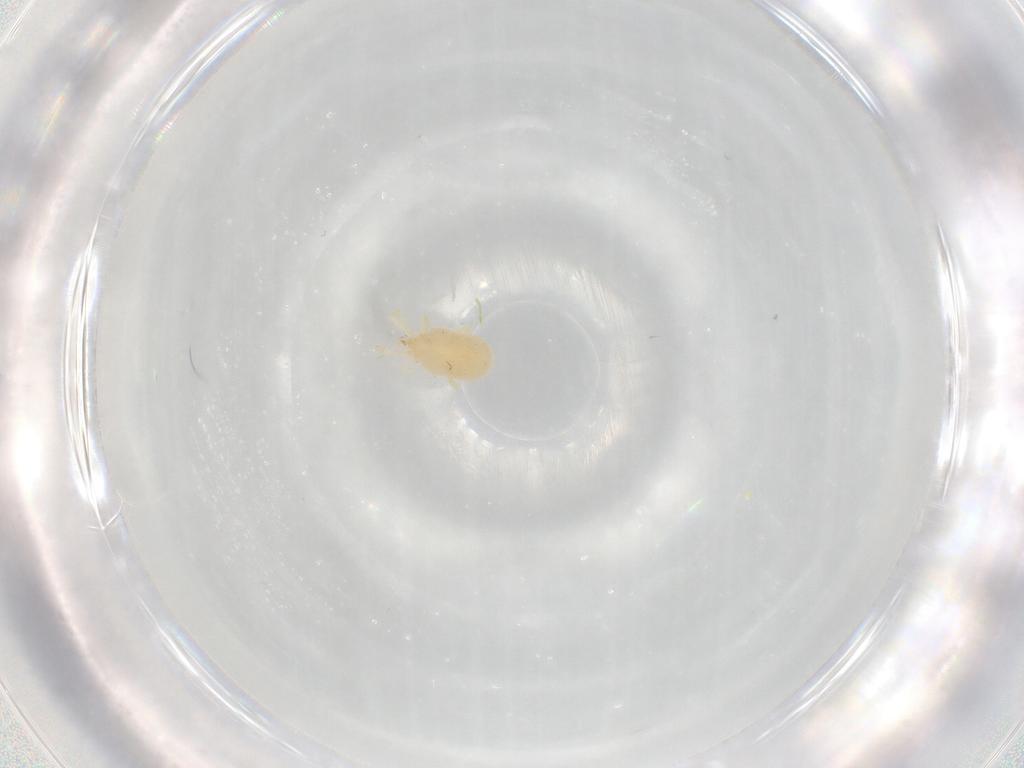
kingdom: Animalia
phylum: Arthropoda
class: Arachnida
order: Trombidiformes
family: Erythraeidae
